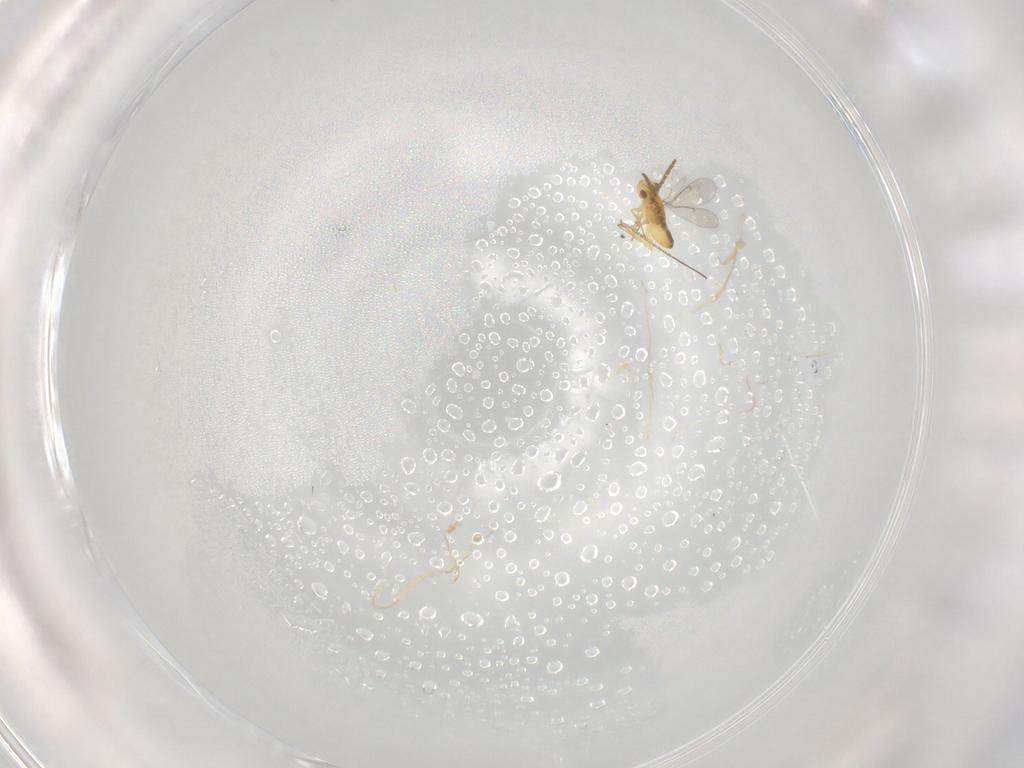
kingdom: Animalia
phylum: Arthropoda
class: Insecta
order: Hymenoptera
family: Aphelinidae
